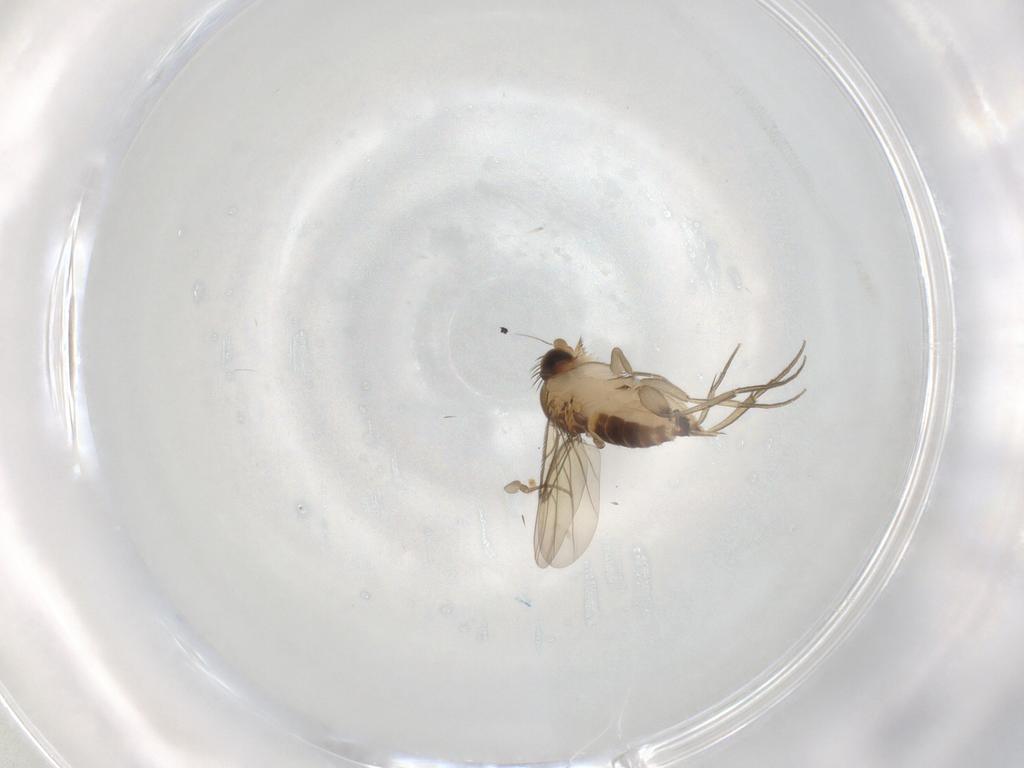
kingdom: Animalia
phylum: Arthropoda
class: Insecta
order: Diptera
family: Phoridae
